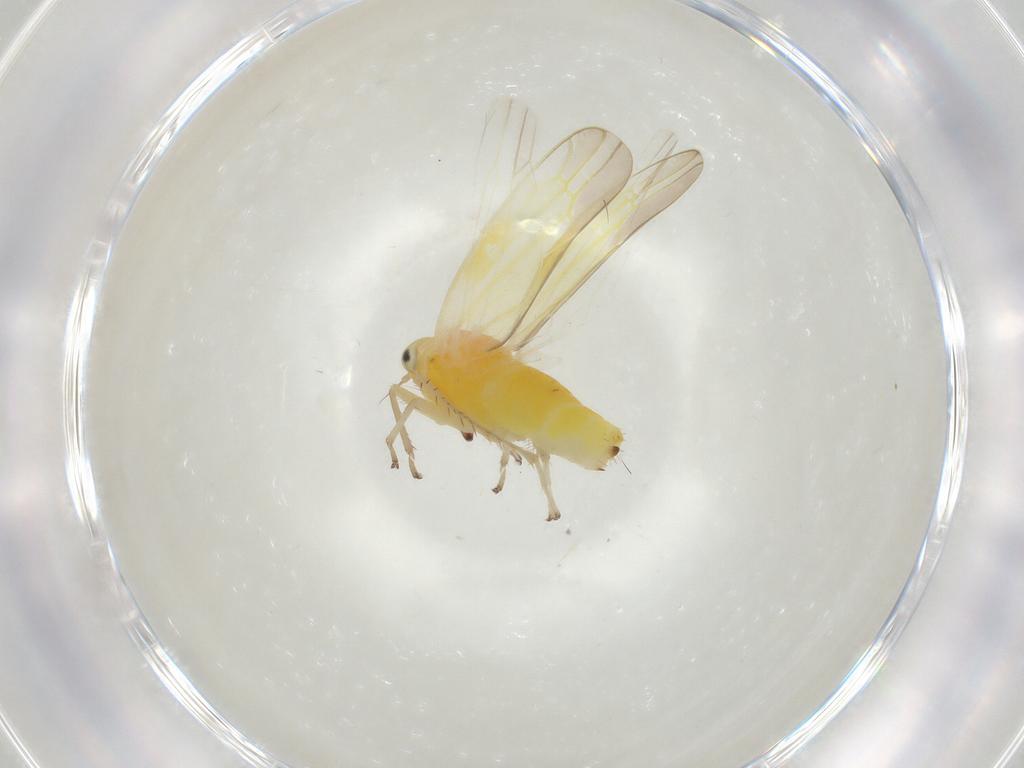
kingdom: Animalia
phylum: Arthropoda
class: Insecta
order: Hemiptera
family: Cicadellidae
